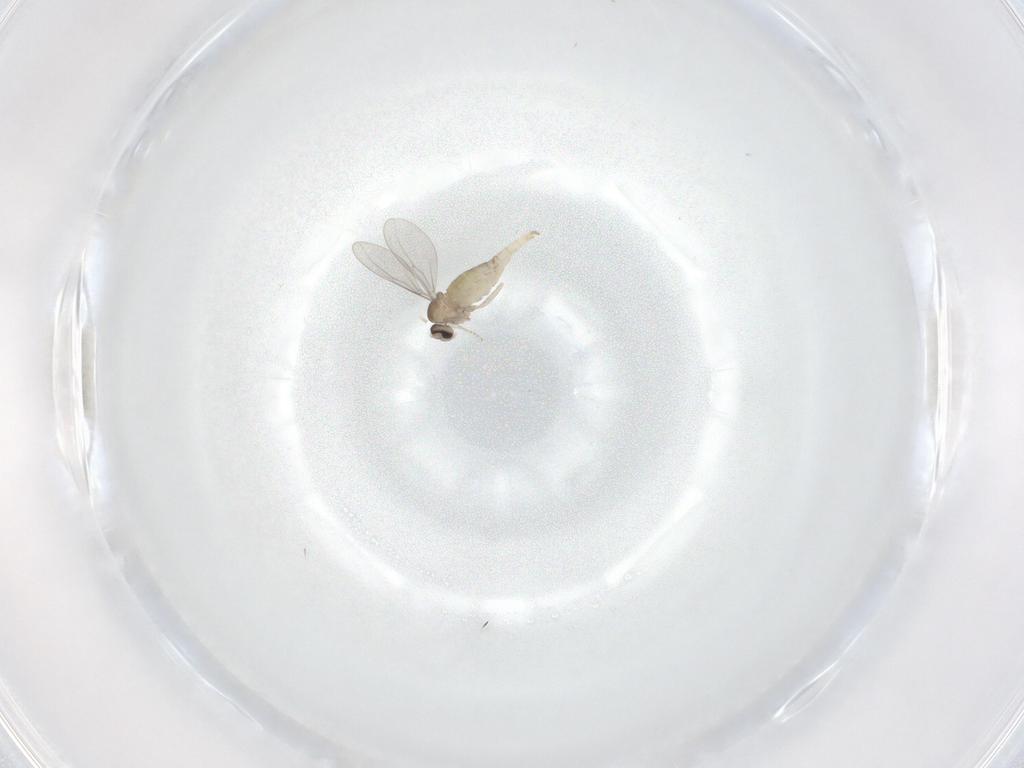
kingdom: Animalia
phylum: Arthropoda
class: Insecta
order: Diptera
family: Cecidomyiidae
